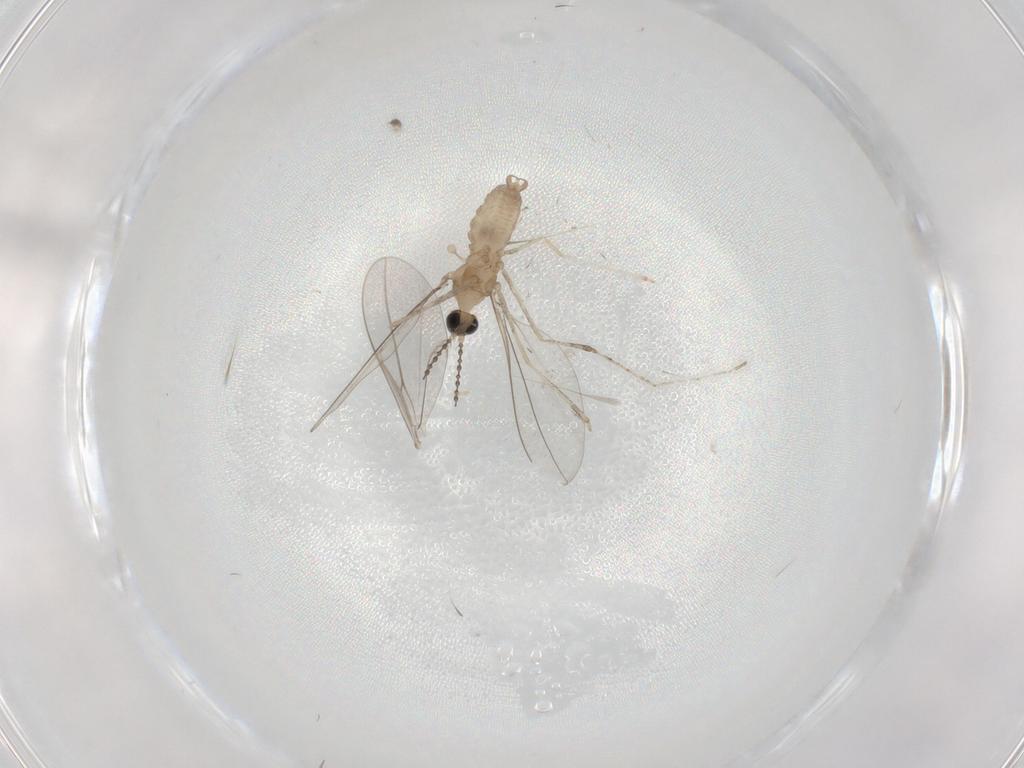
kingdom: Animalia
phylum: Arthropoda
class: Insecta
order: Diptera
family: Cecidomyiidae
